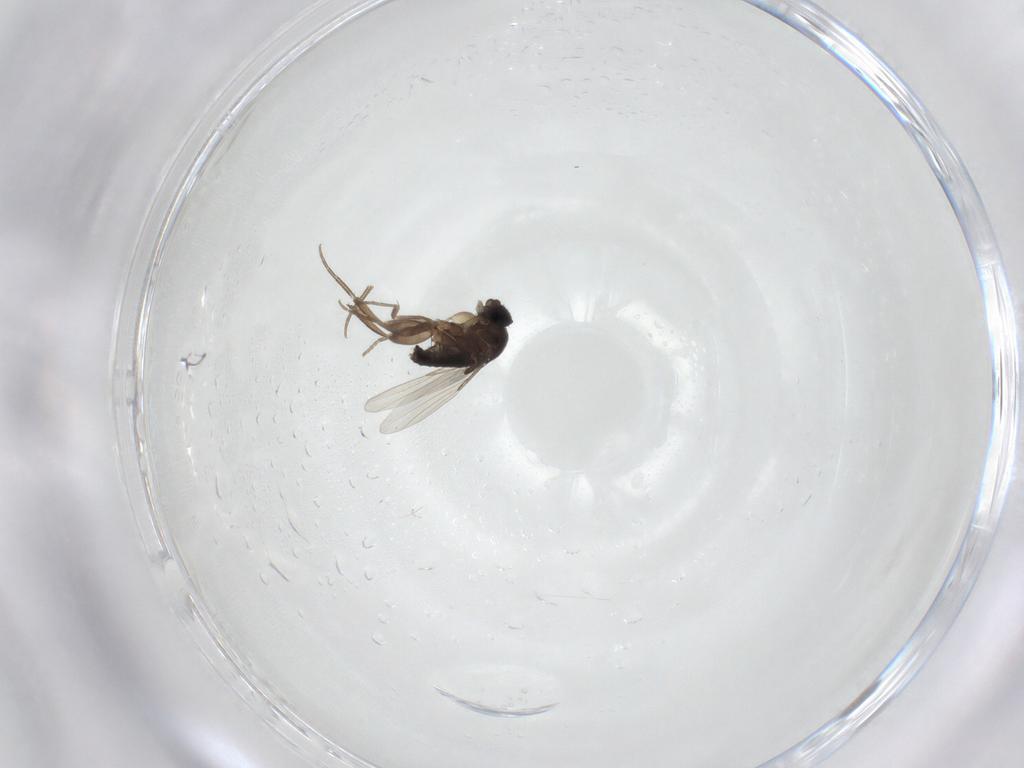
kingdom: Animalia
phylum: Arthropoda
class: Insecta
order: Diptera
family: Phoridae
